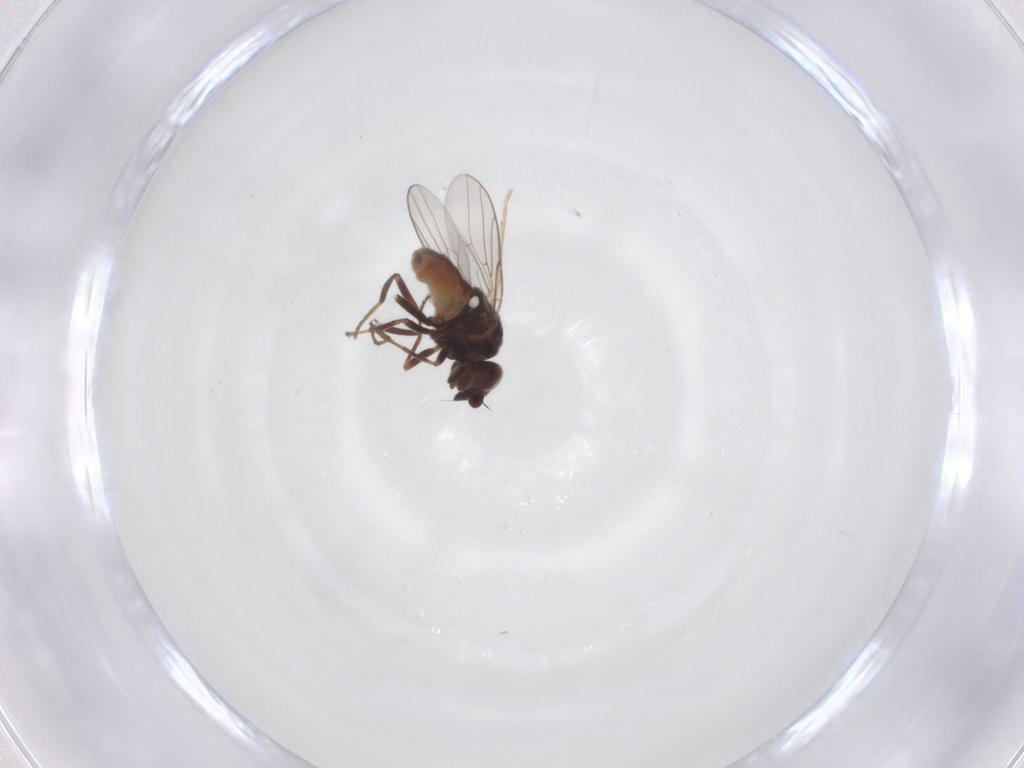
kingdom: Animalia
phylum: Arthropoda
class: Insecta
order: Diptera
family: Chloropidae
